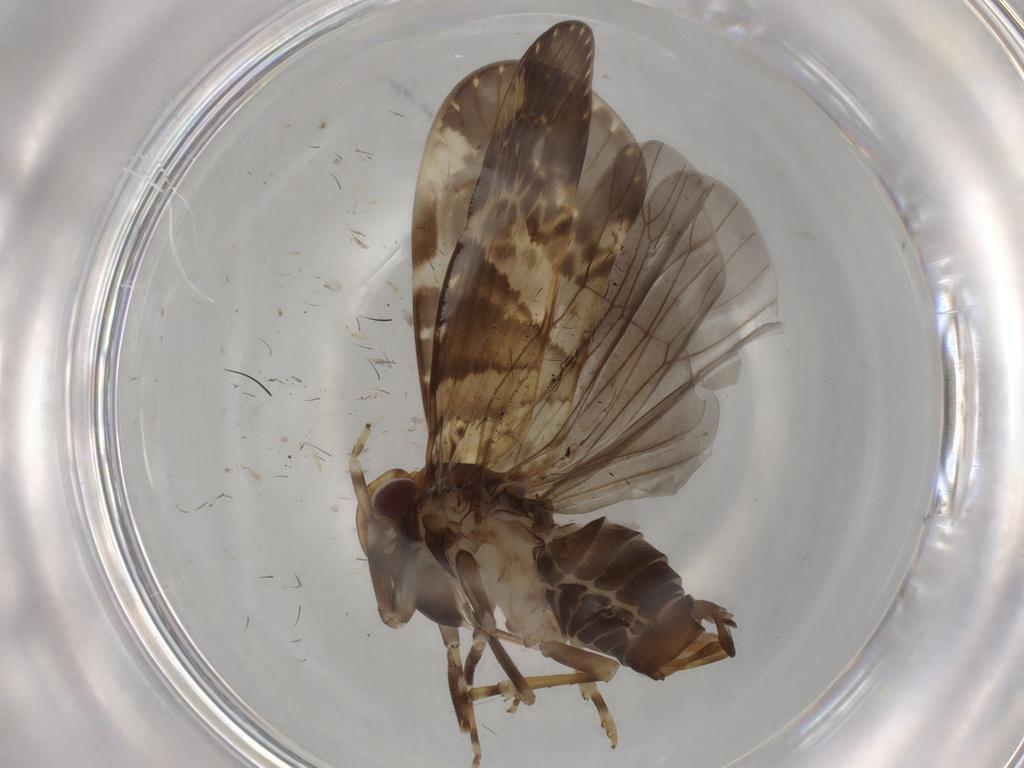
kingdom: Animalia
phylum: Arthropoda
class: Insecta
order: Hemiptera
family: Cixiidae
